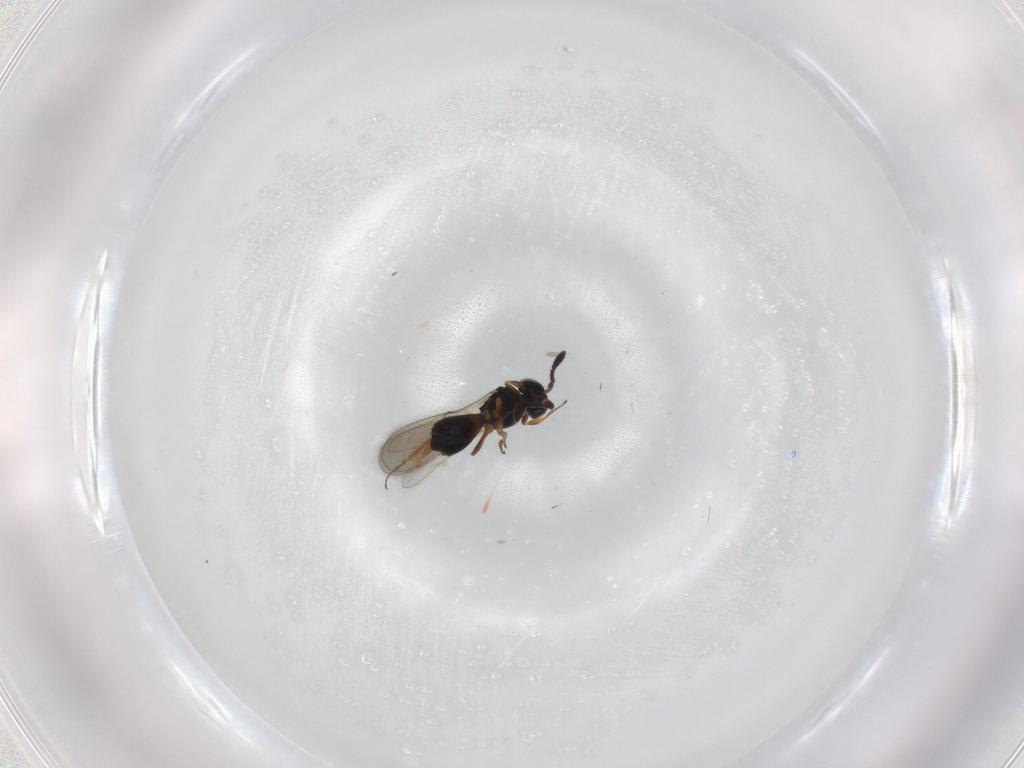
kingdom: Animalia
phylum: Arthropoda
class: Insecta
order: Hymenoptera
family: Scelionidae
